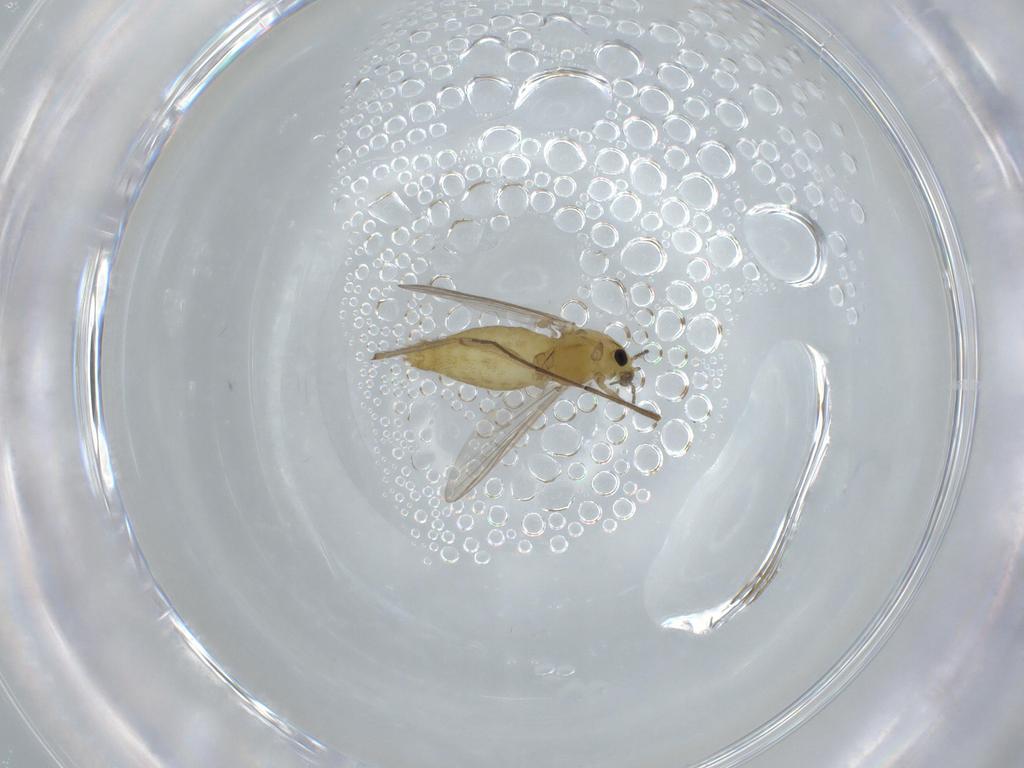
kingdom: Animalia
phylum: Arthropoda
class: Insecta
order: Diptera
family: Chironomidae
